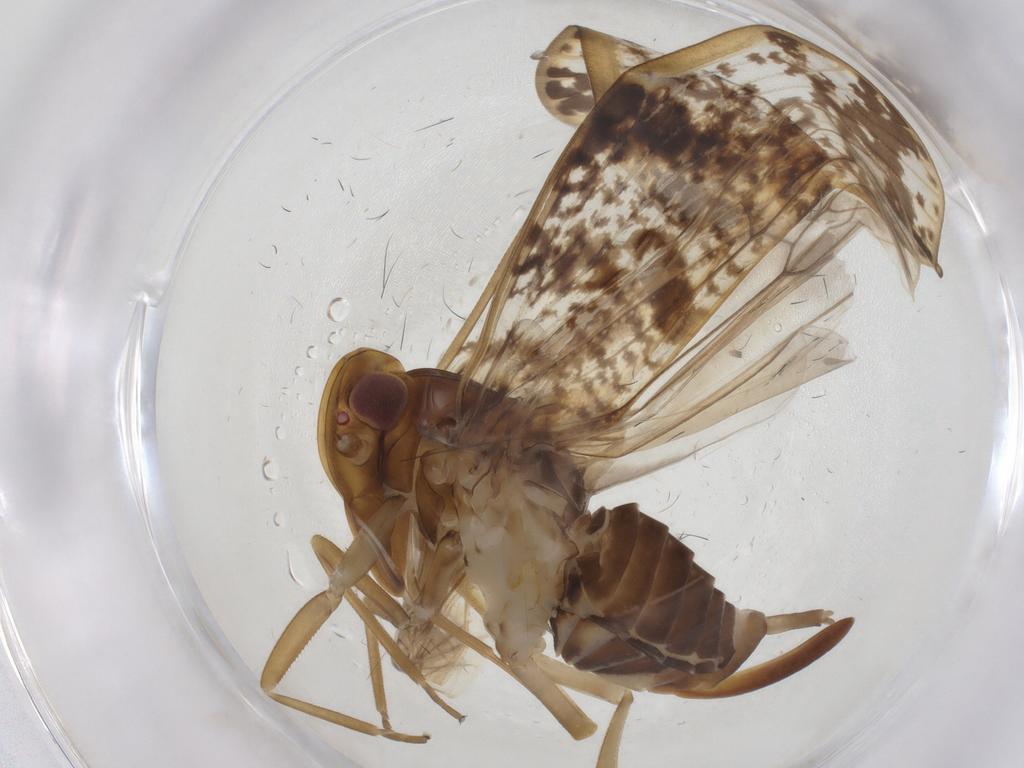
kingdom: Animalia
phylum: Arthropoda
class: Insecta
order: Hemiptera
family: Cixiidae
